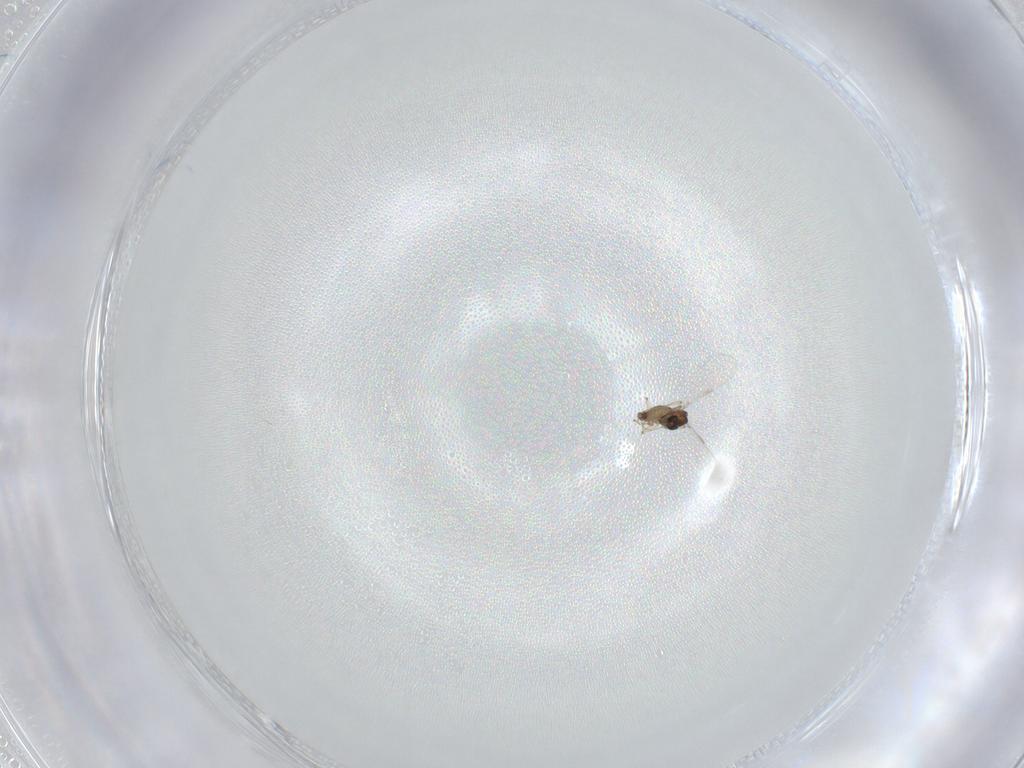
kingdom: Animalia
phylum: Arthropoda
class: Insecta
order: Diptera
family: Chironomidae
